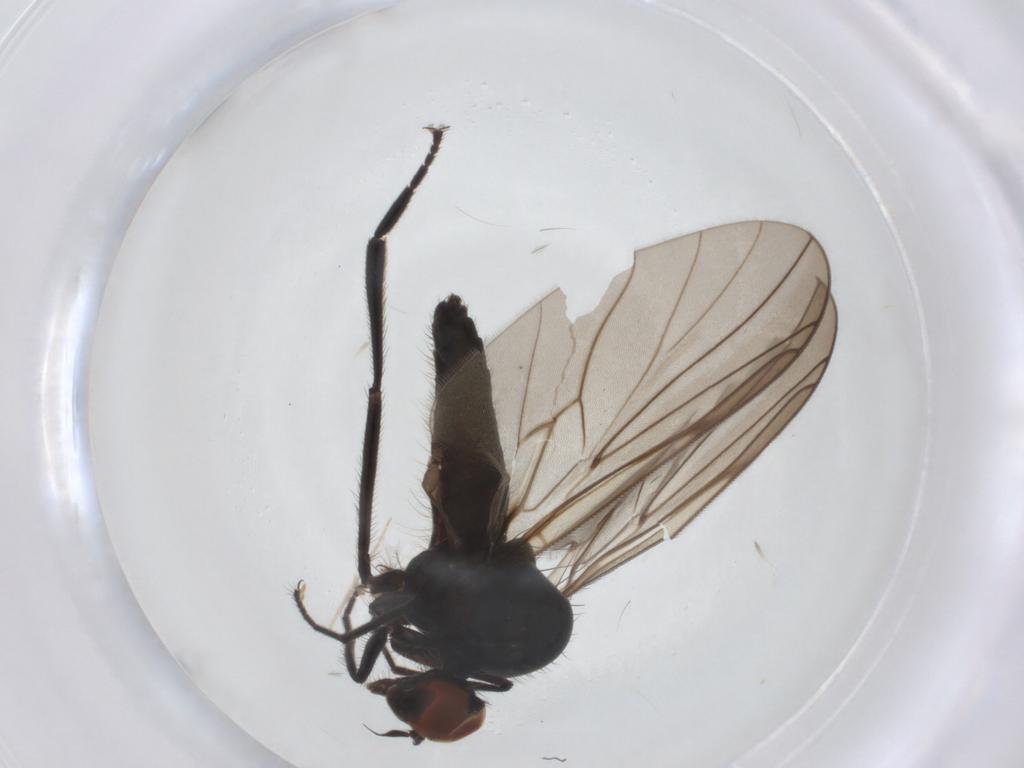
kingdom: Animalia
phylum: Arthropoda
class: Insecta
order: Diptera
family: Hybotidae
